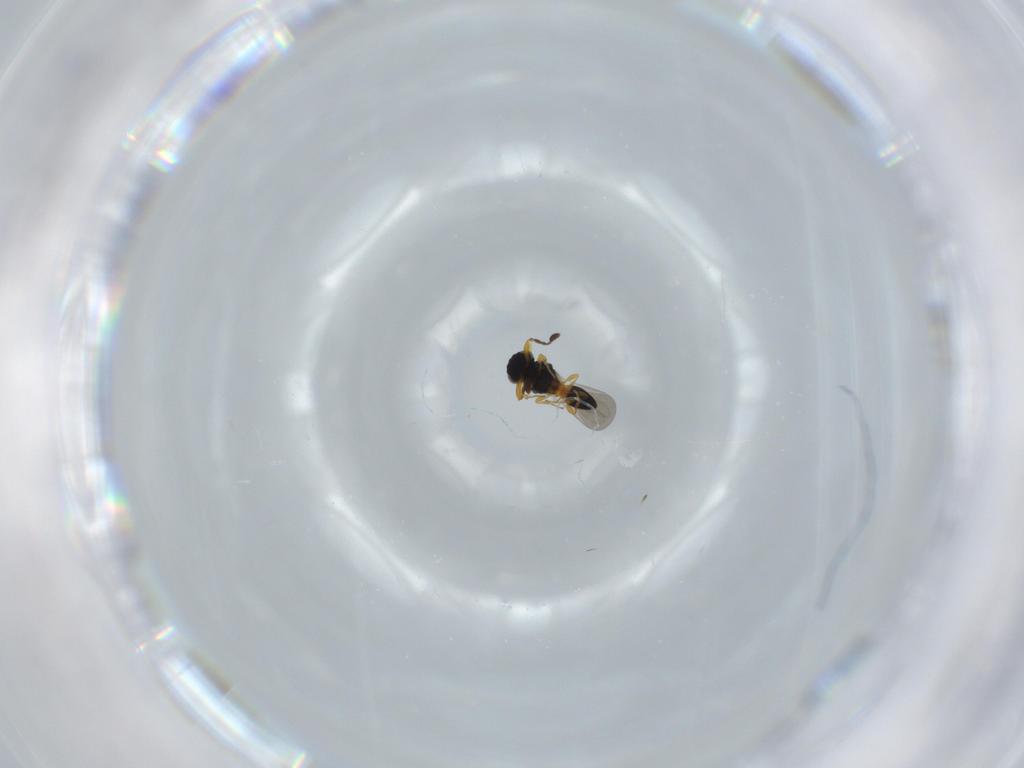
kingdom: Animalia
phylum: Arthropoda
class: Insecta
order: Hymenoptera
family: Platygastridae
